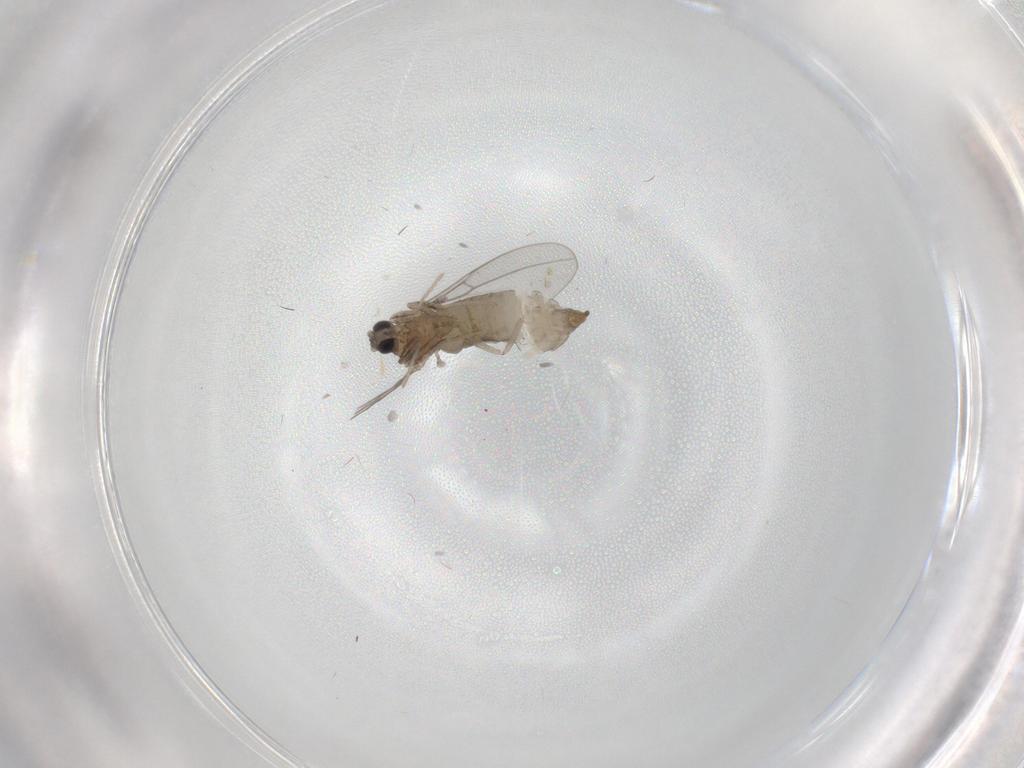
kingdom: Animalia
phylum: Arthropoda
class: Insecta
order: Diptera
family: Cecidomyiidae
